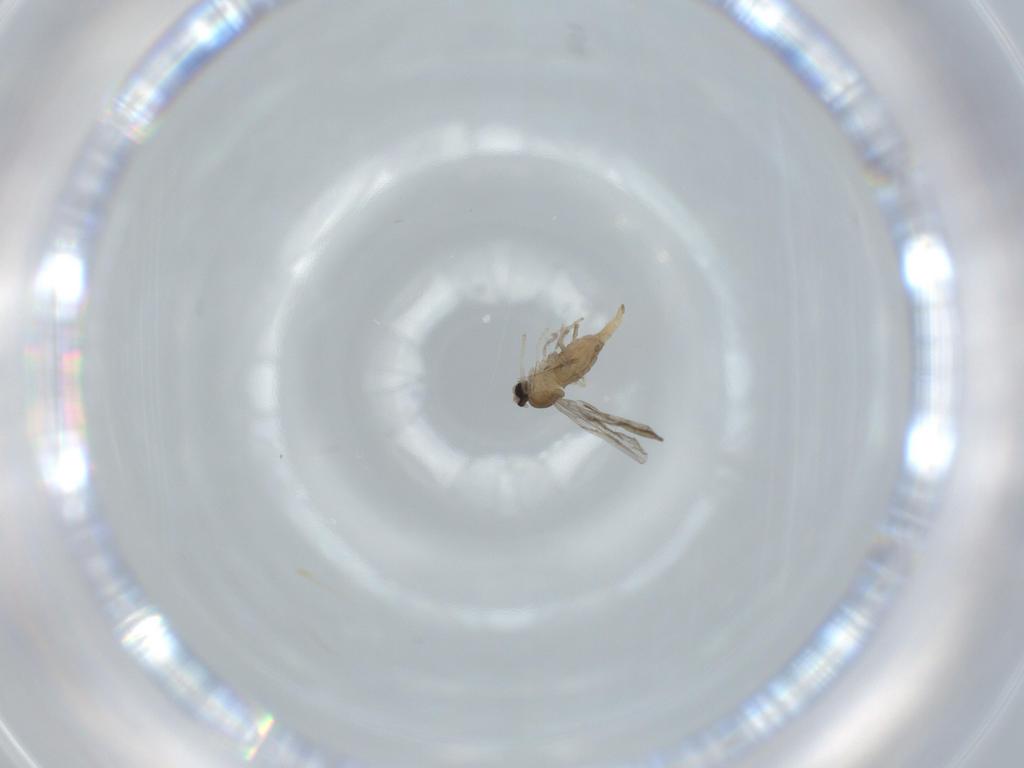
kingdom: Animalia
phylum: Arthropoda
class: Insecta
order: Diptera
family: Cecidomyiidae
